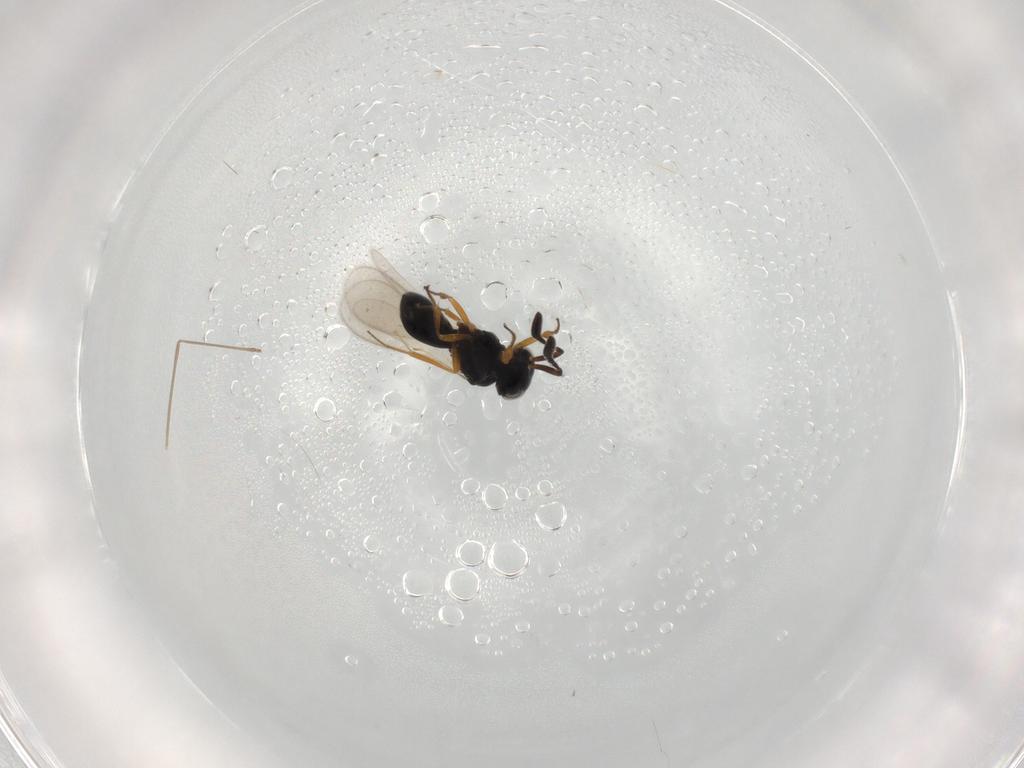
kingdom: Animalia
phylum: Arthropoda
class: Insecta
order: Hymenoptera
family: Scelionidae
